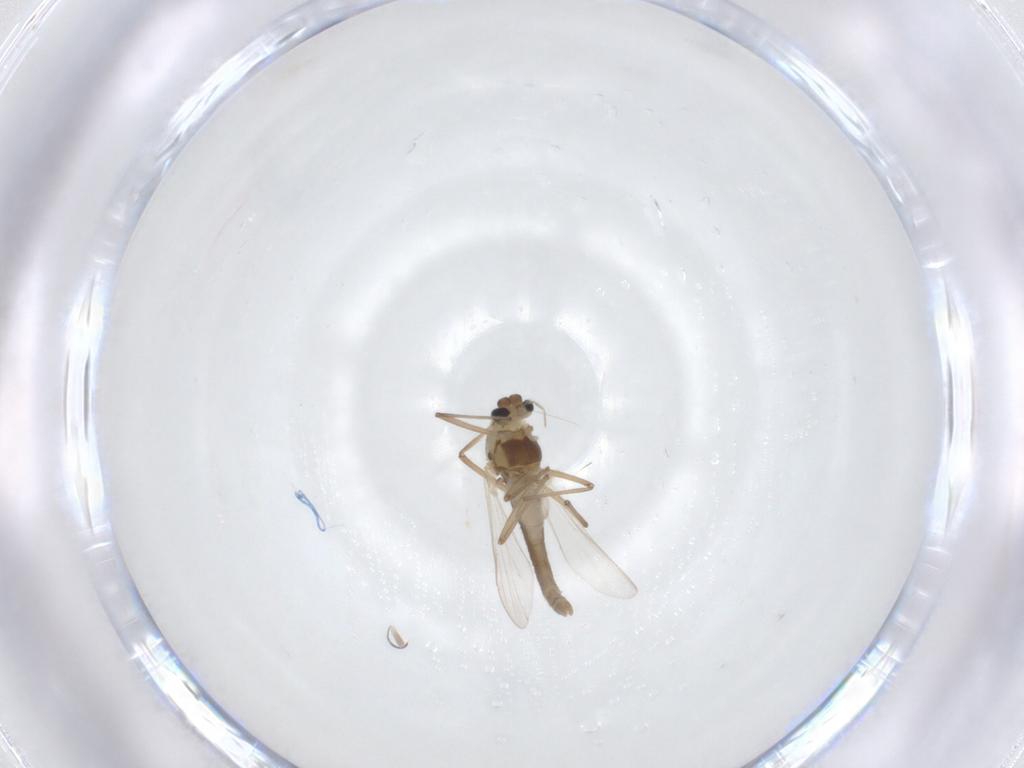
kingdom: Animalia
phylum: Arthropoda
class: Insecta
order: Diptera
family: Chironomidae
